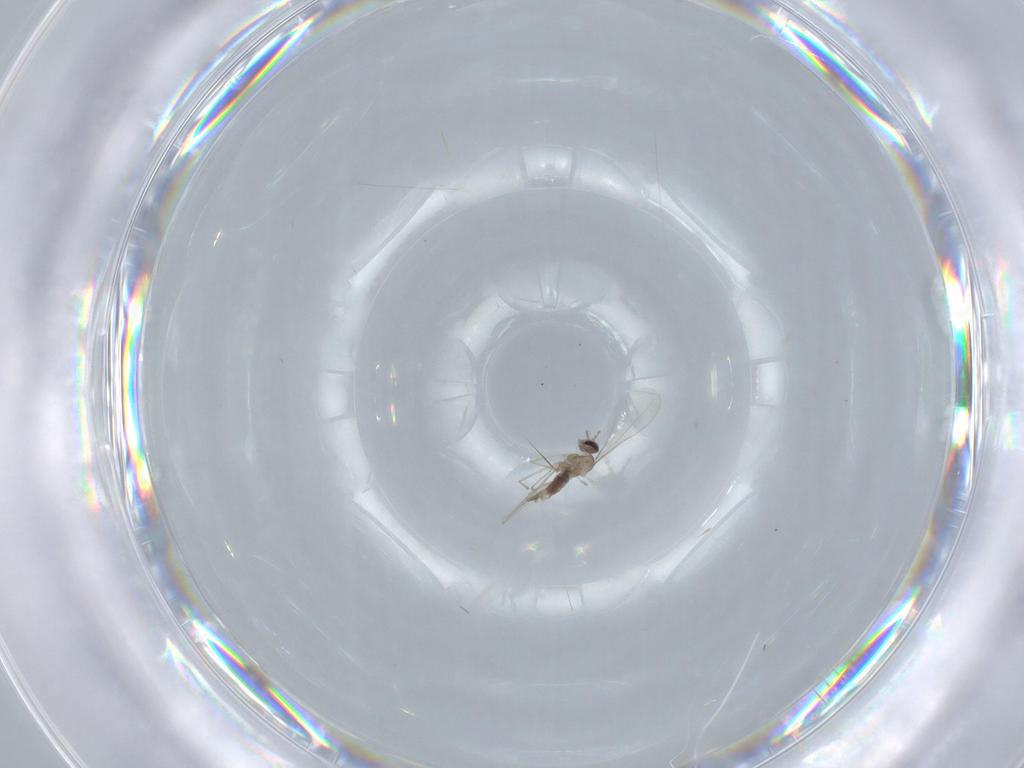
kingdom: Animalia
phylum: Arthropoda
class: Insecta
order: Diptera
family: Cecidomyiidae
